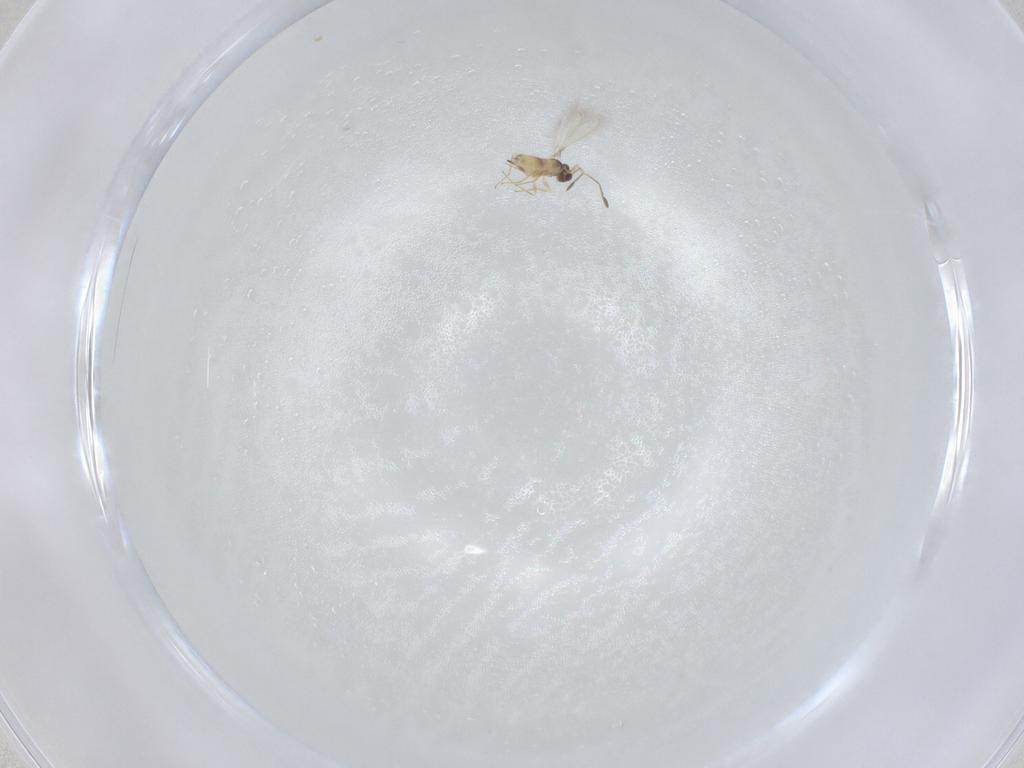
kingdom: Animalia
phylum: Arthropoda
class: Insecta
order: Hymenoptera
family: Mymaridae
